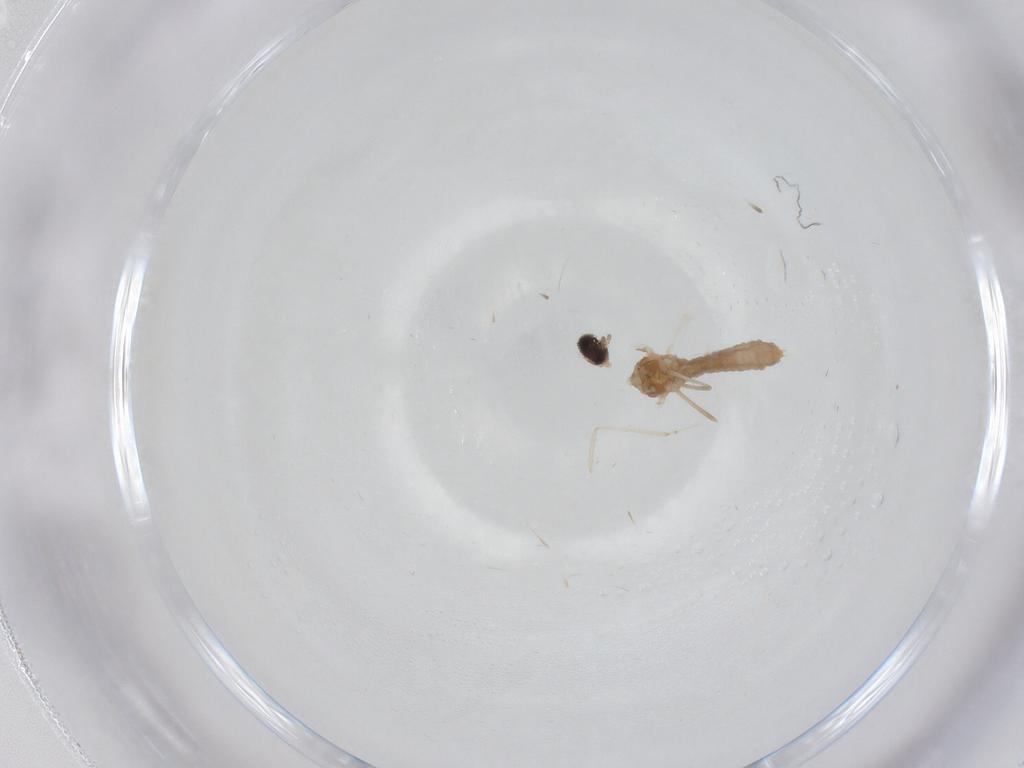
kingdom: Animalia
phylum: Arthropoda
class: Insecta
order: Diptera
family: Cecidomyiidae
